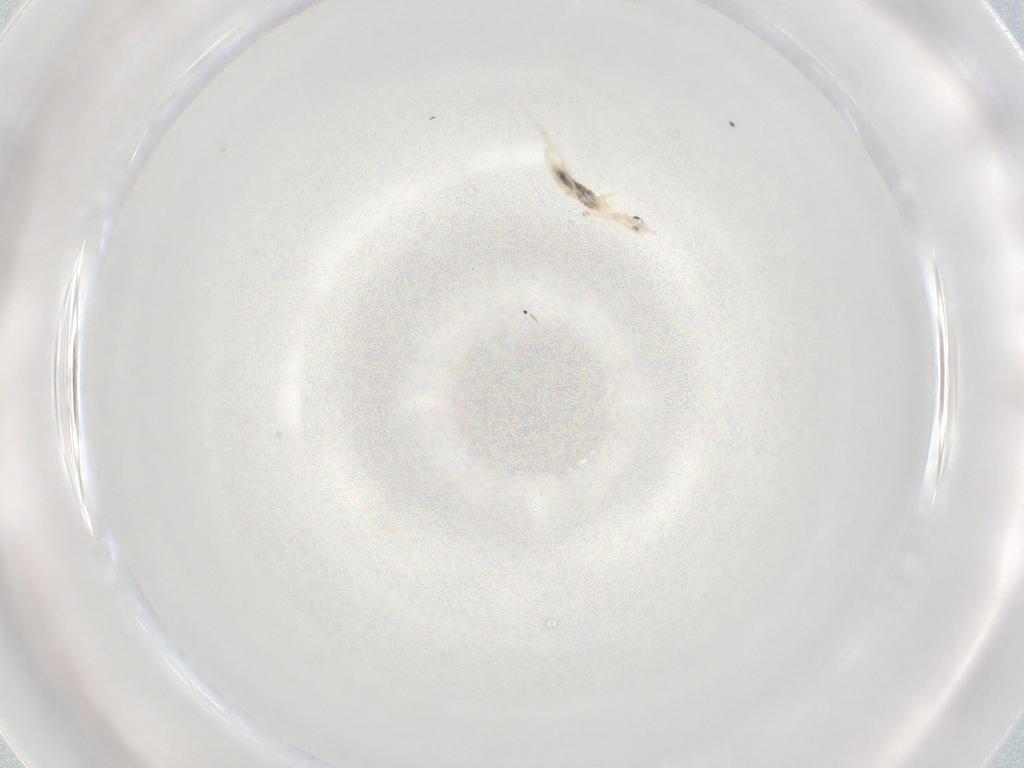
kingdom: Animalia
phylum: Arthropoda
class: Collembola
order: Entomobryomorpha
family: Entomobryidae
